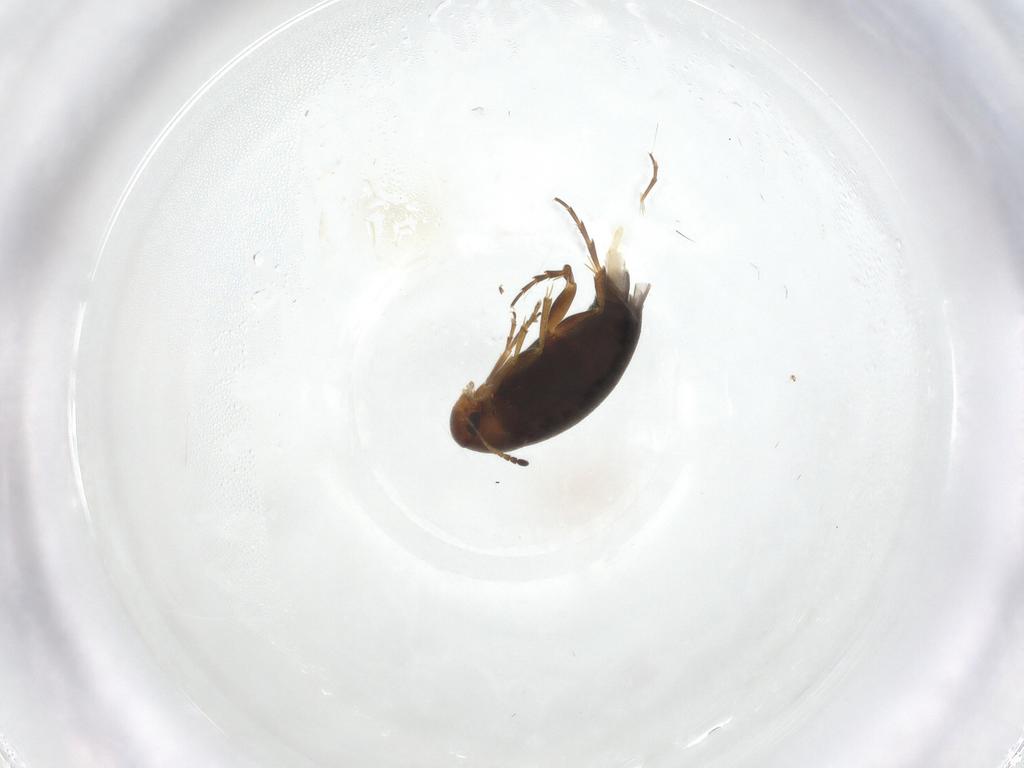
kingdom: Animalia
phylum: Arthropoda
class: Insecta
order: Coleoptera
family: Scraptiidae
